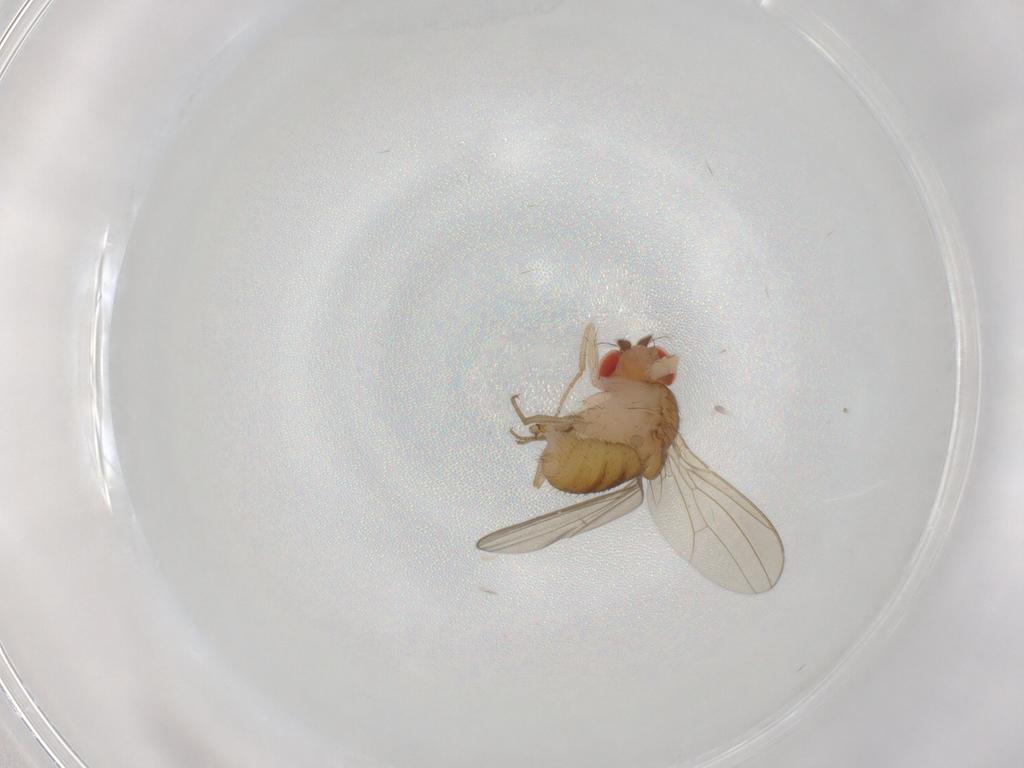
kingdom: Animalia
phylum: Arthropoda
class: Insecta
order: Diptera
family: Drosophilidae
